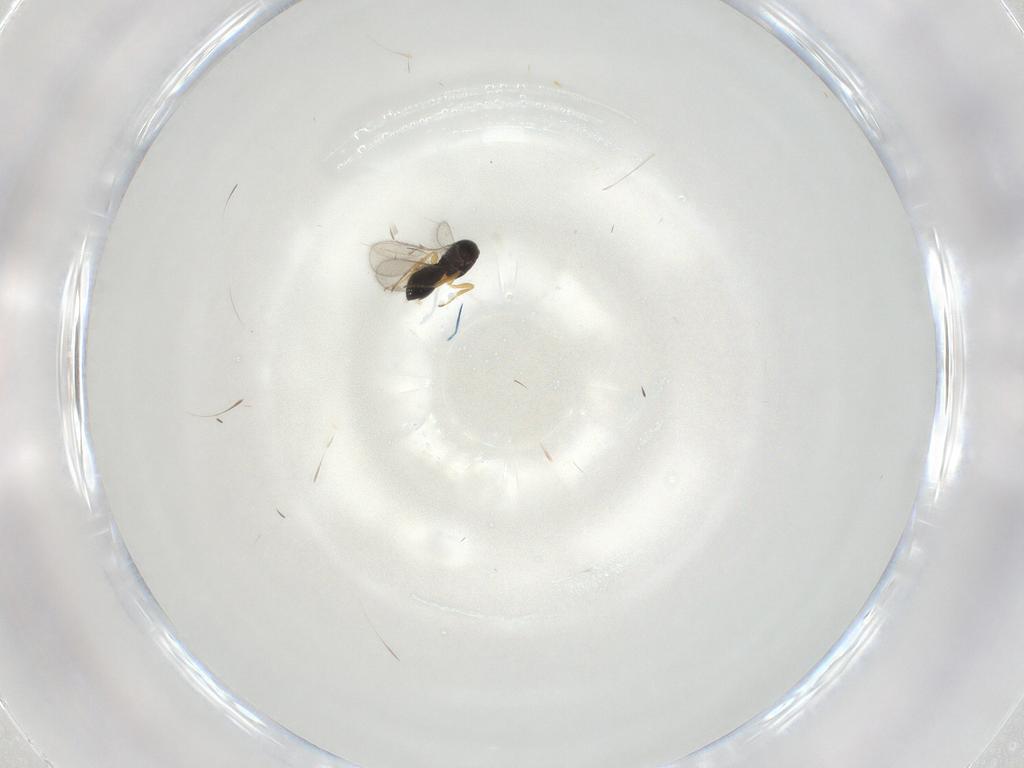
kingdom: Animalia
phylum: Arthropoda
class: Insecta
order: Hymenoptera
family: Scelionidae
